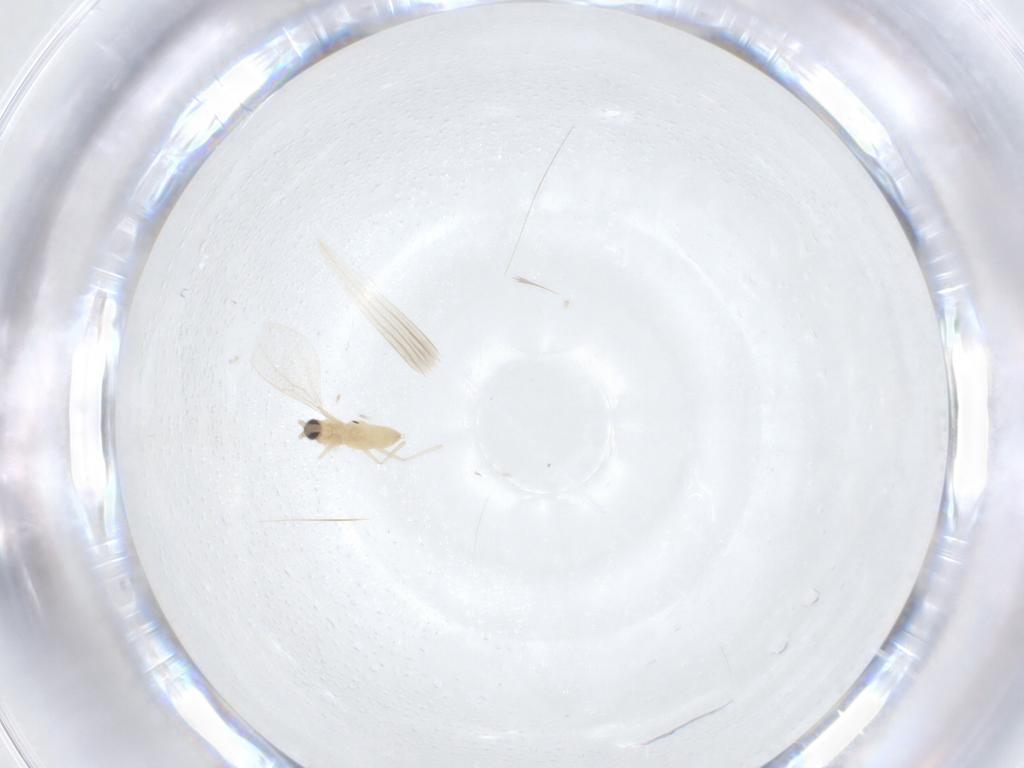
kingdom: Animalia
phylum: Arthropoda
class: Insecta
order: Diptera
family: Cecidomyiidae
